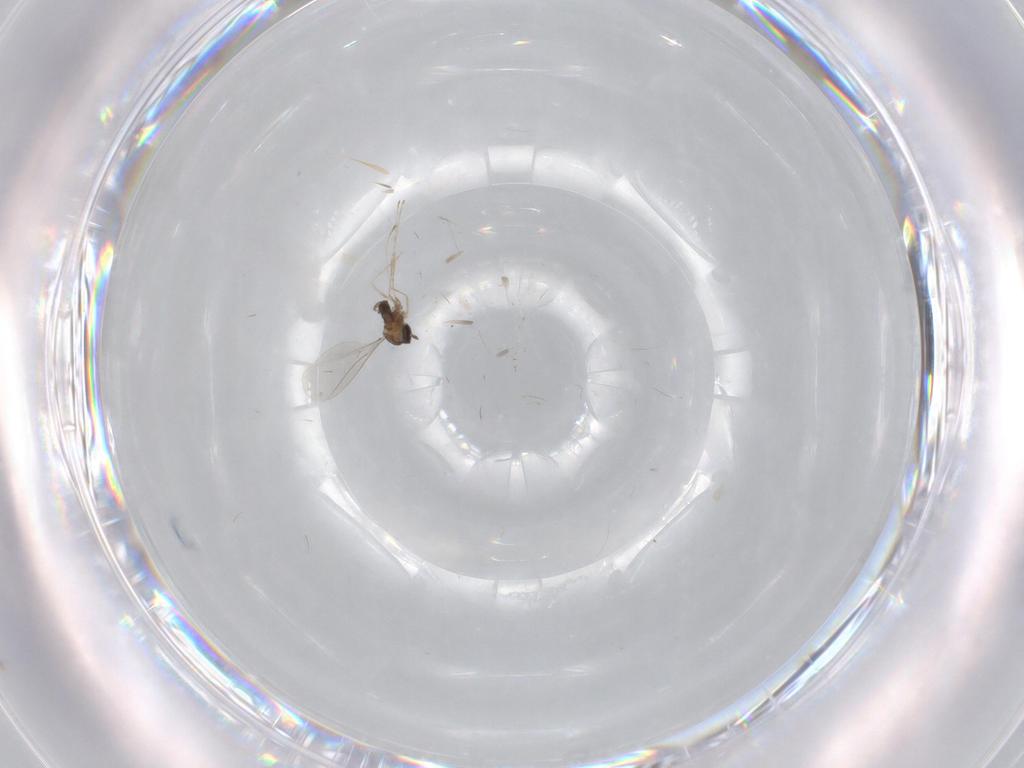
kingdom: Animalia
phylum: Arthropoda
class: Insecta
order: Diptera
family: Cecidomyiidae
